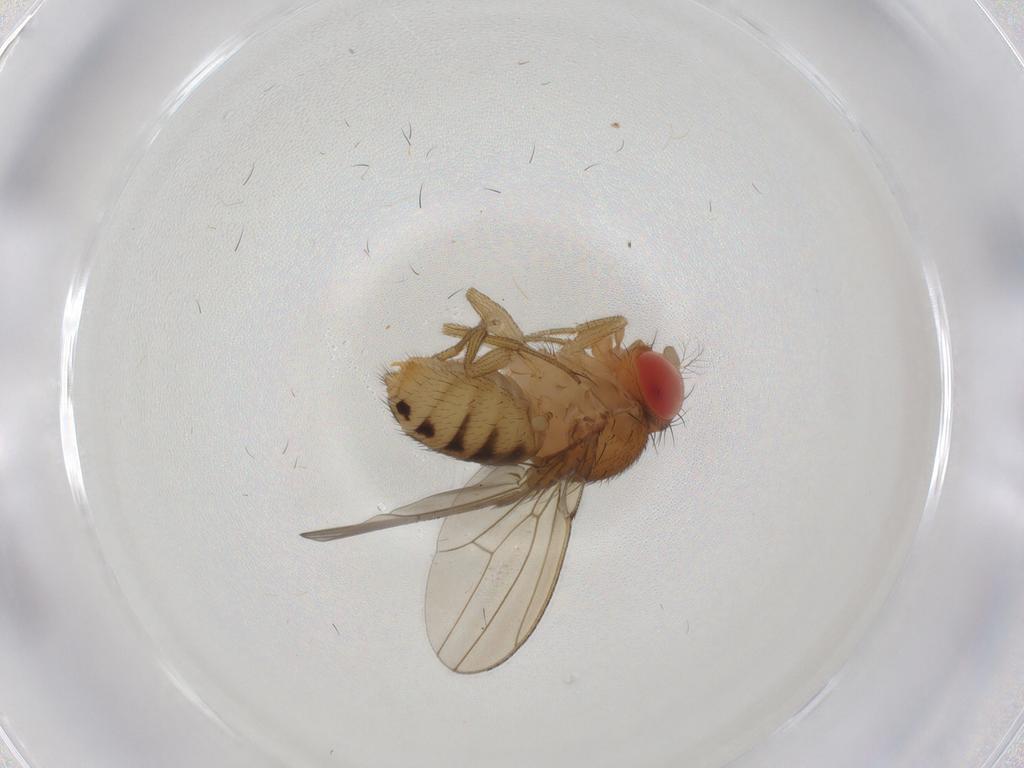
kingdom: Animalia
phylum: Arthropoda
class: Insecta
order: Diptera
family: Drosophilidae
